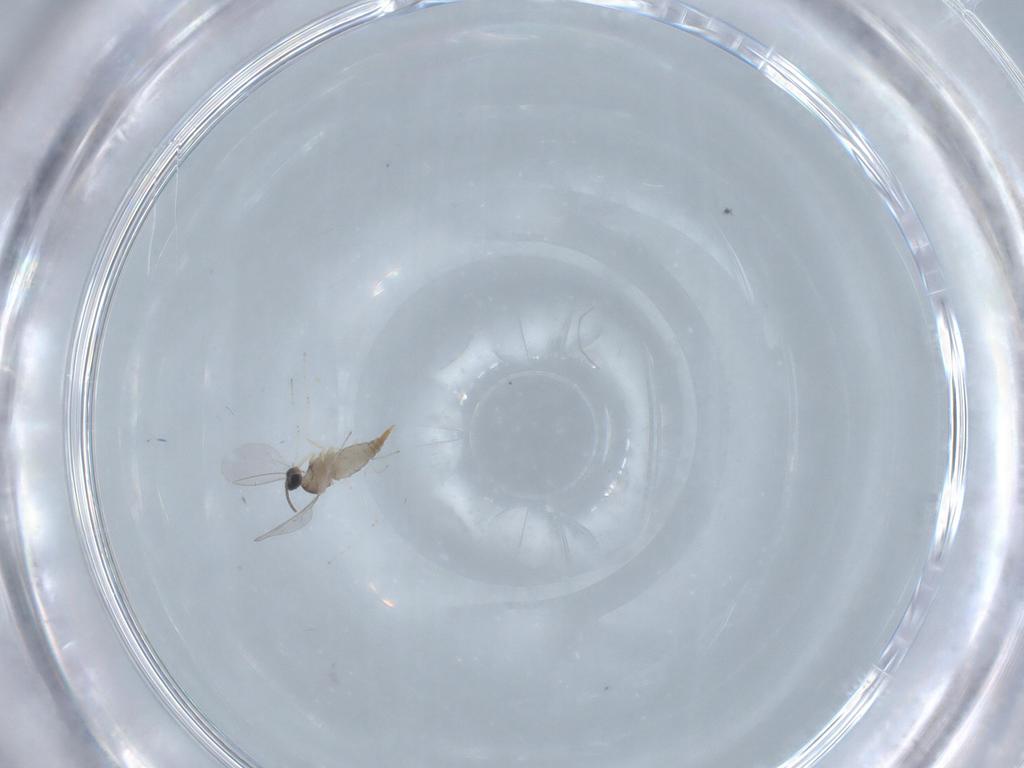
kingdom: Animalia
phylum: Arthropoda
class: Insecta
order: Diptera
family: Cecidomyiidae
